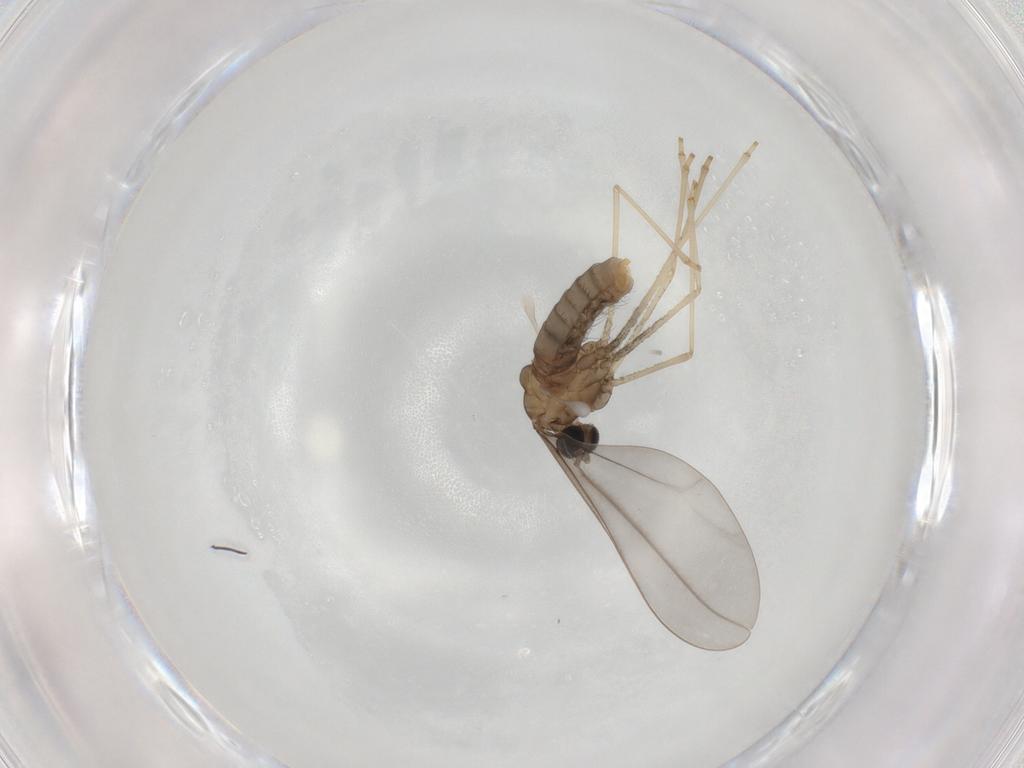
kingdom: Animalia
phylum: Arthropoda
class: Insecta
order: Diptera
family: Cecidomyiidae
